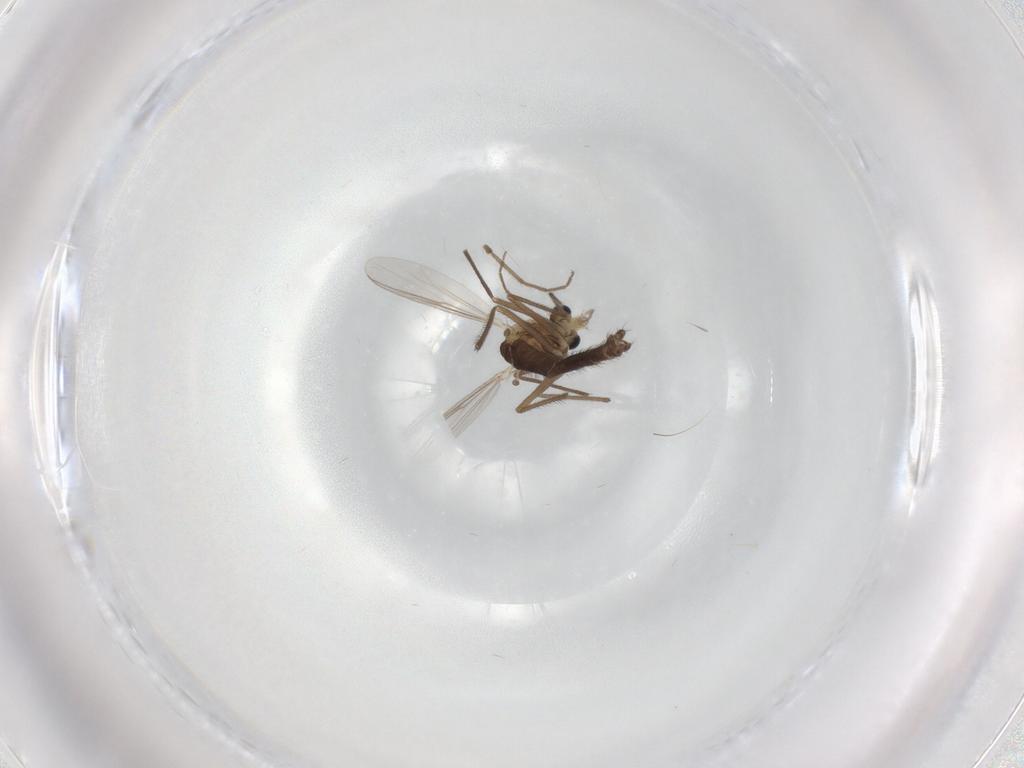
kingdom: Animalia
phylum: Arthropoda
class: Insecta
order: Diptera
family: Chironomidae
